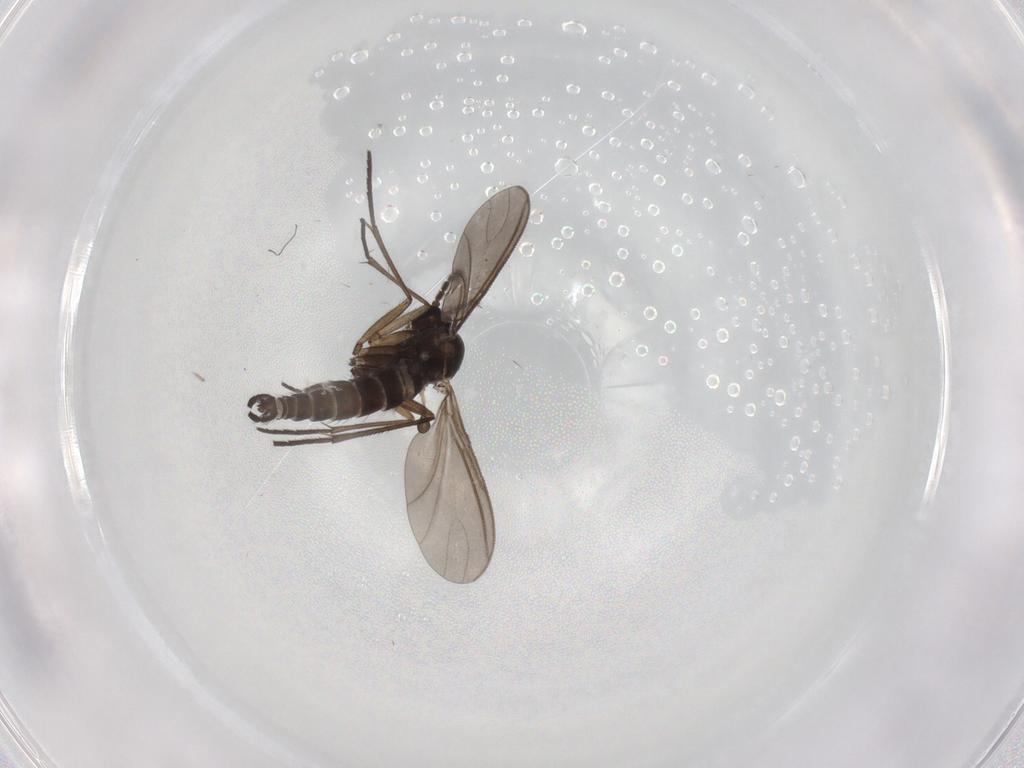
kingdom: Animalia
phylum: Arthropoda
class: Insecta
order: Diptera
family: Sciaridae
